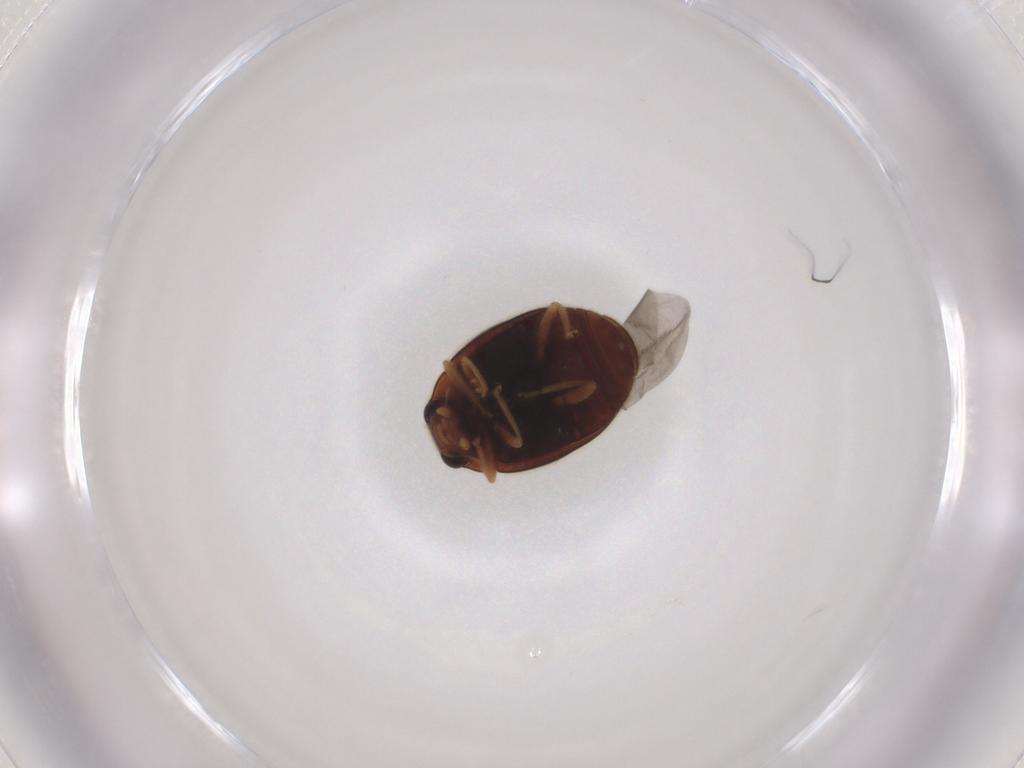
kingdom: Animalia
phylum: Arthropoda
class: Insecta
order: Coleoptera
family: Coccinellidae
